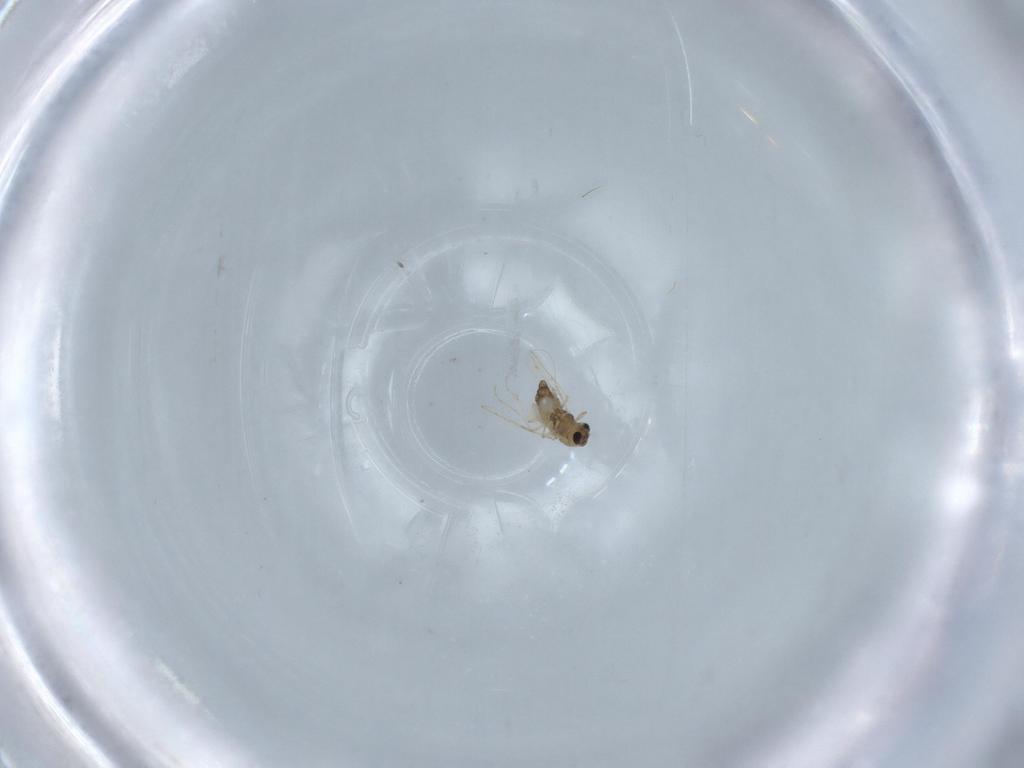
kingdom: Animalia
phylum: Arthropoda
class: Insecta
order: Diptera
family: Chironomidae
